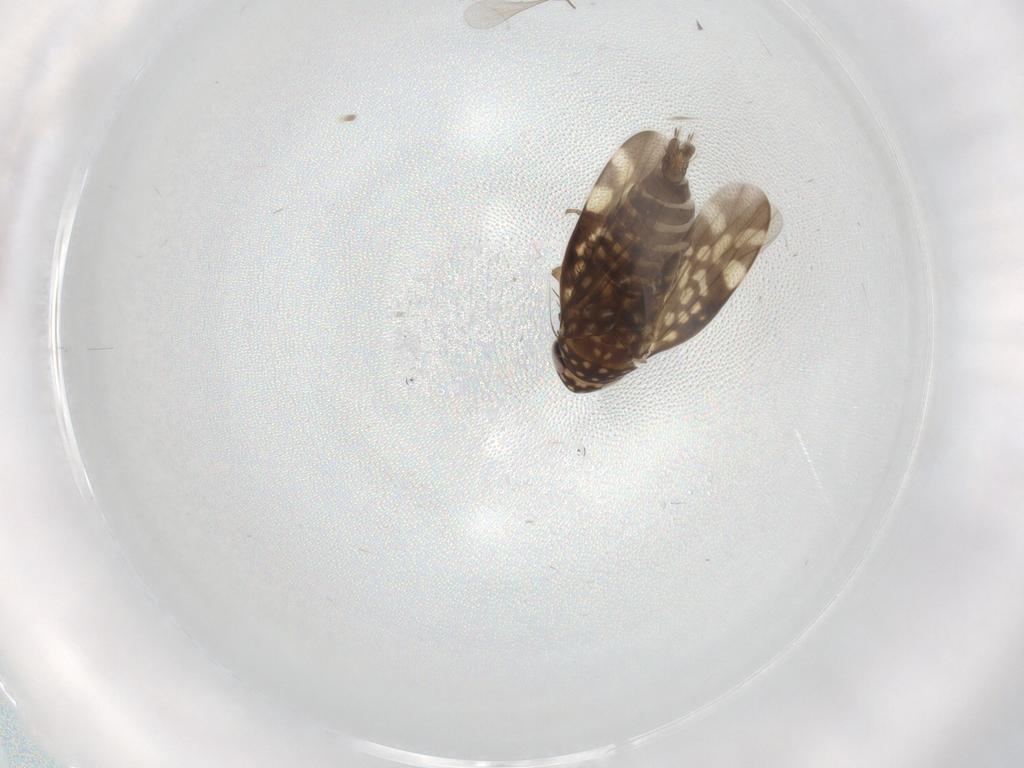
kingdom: Animalia
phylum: Arthropoda
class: Insecta
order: Hemiptera
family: Cicadellidae
